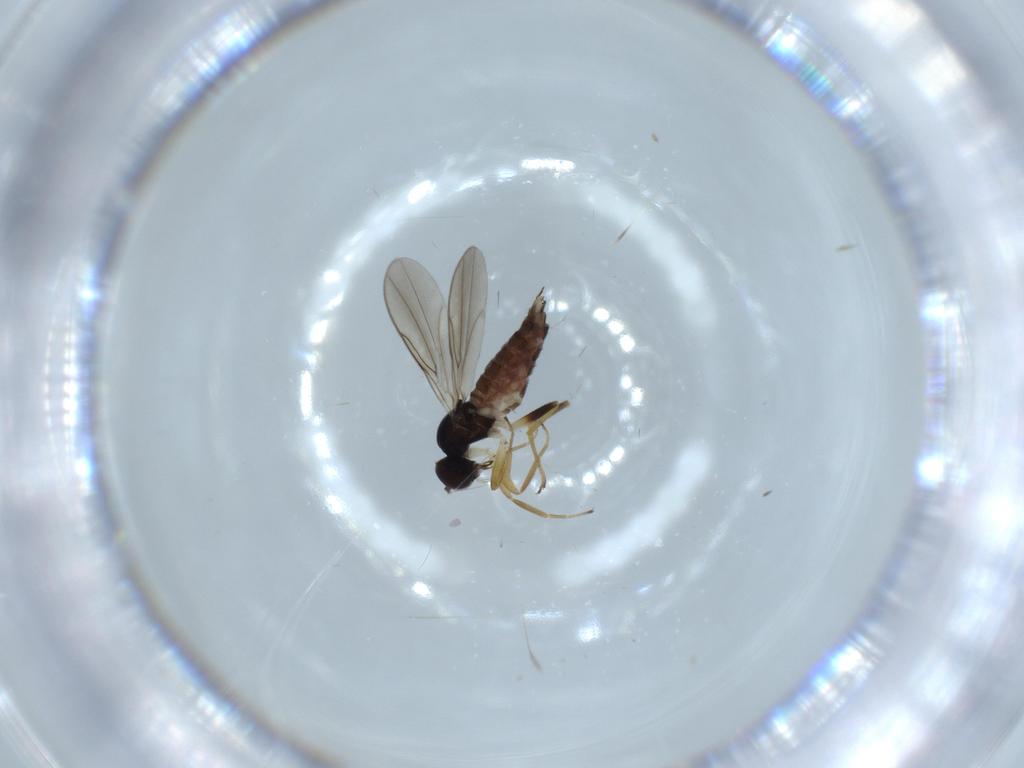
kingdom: Animalia
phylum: Arthropoda
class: Insecta
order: Diptera
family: Hybotidae
